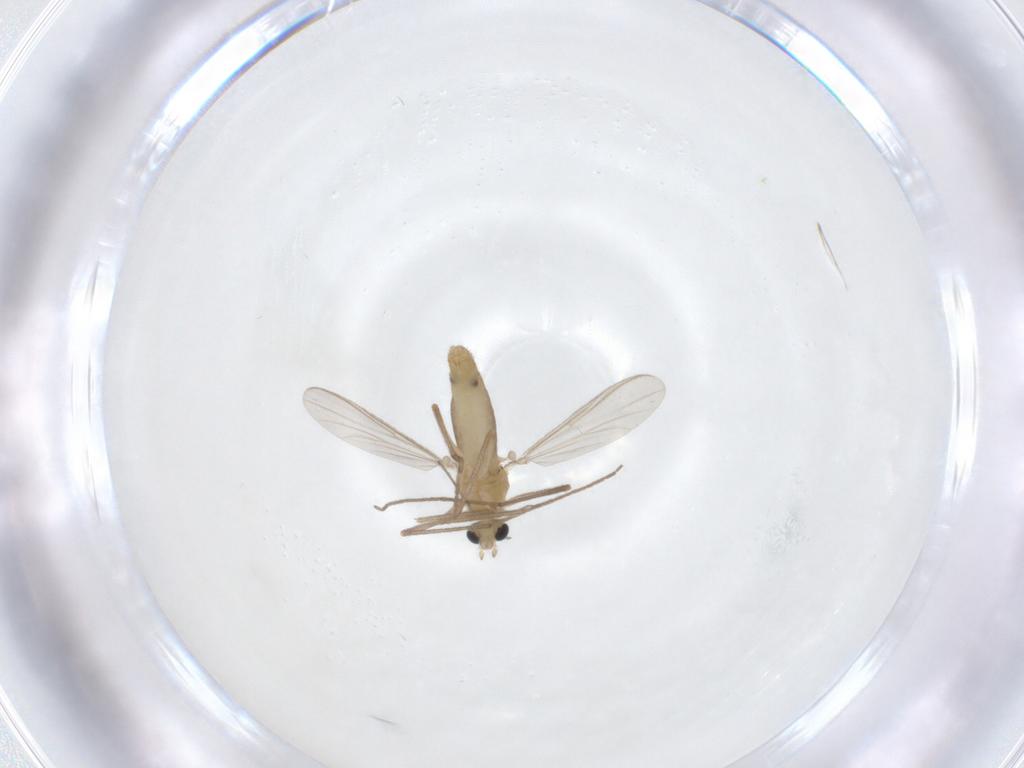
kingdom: Animalia
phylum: Arthropoda
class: Insecta
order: Diptera
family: Chironomidae
